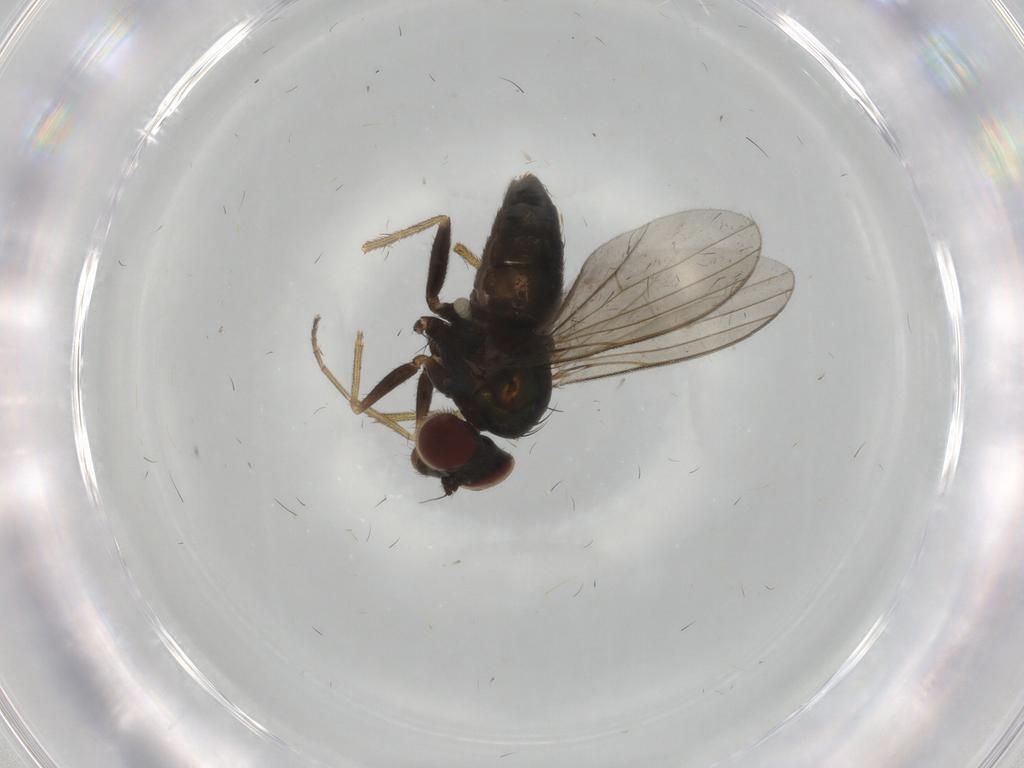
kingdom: Animalia
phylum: Arthropoda
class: Insecta
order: Diptera
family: Dolichopodidae
